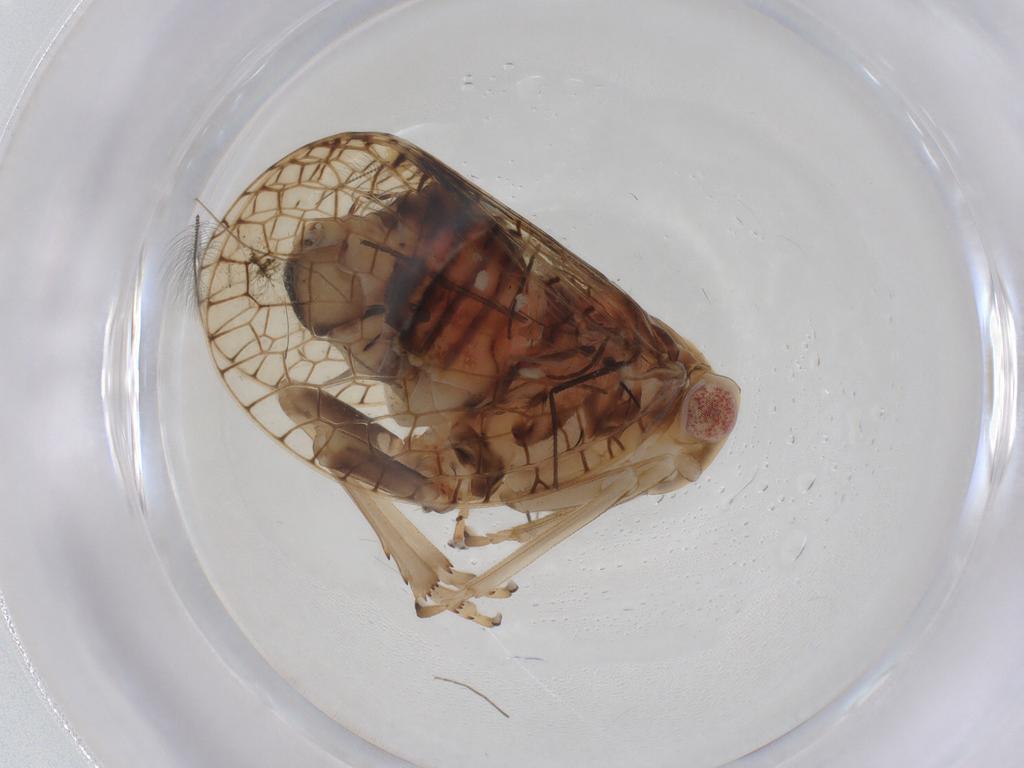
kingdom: Animalia
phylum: Arthropoda
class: Insecta
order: Hemiptera
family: Tropiduchidae
